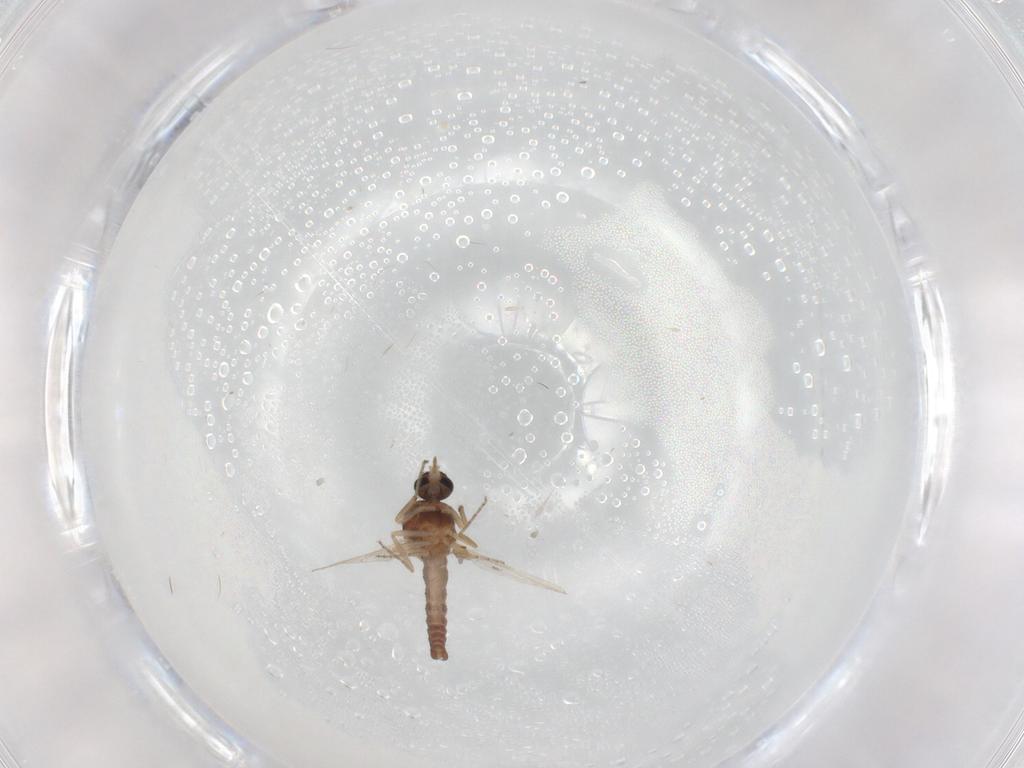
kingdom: Animalia
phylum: Arthropoda
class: Insecta
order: Diptera
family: Ceratopogonidae
